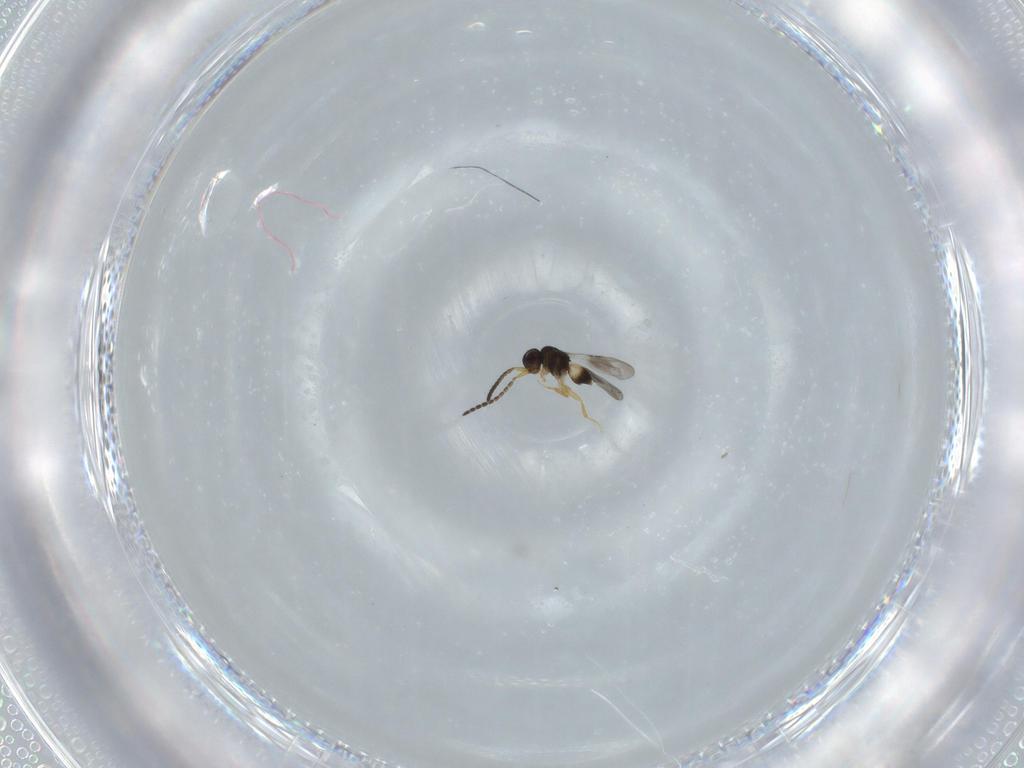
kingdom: Animalia
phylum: Arthropoda
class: Insecta
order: Hymenoptera
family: Ceraphronidae
